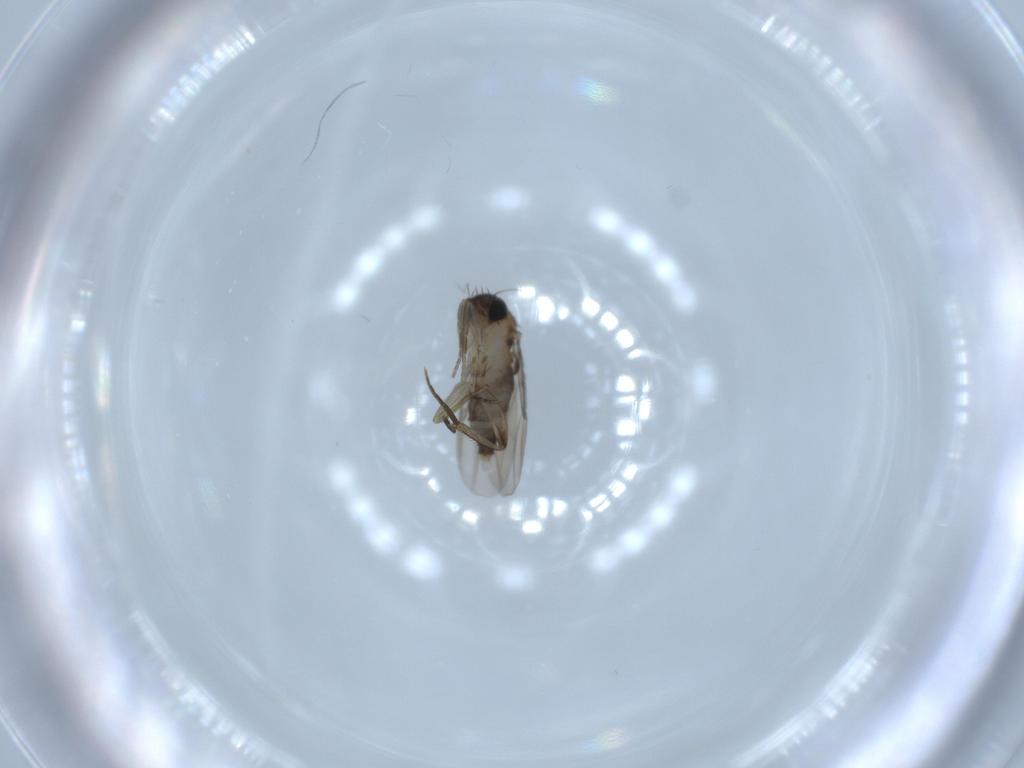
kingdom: Animalia
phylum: Arthropoda
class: Insecta
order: Diptera
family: Phoridae
